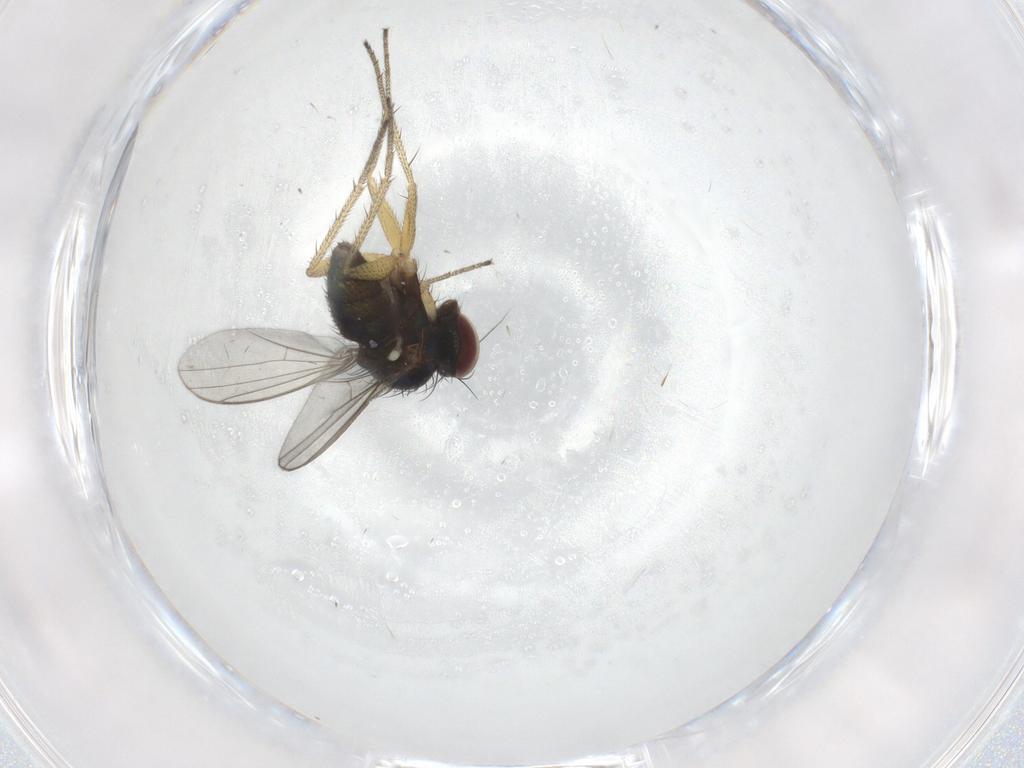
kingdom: Animalia
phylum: Arthropoda
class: Insecta
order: Diptera
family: Dolichopodidae
